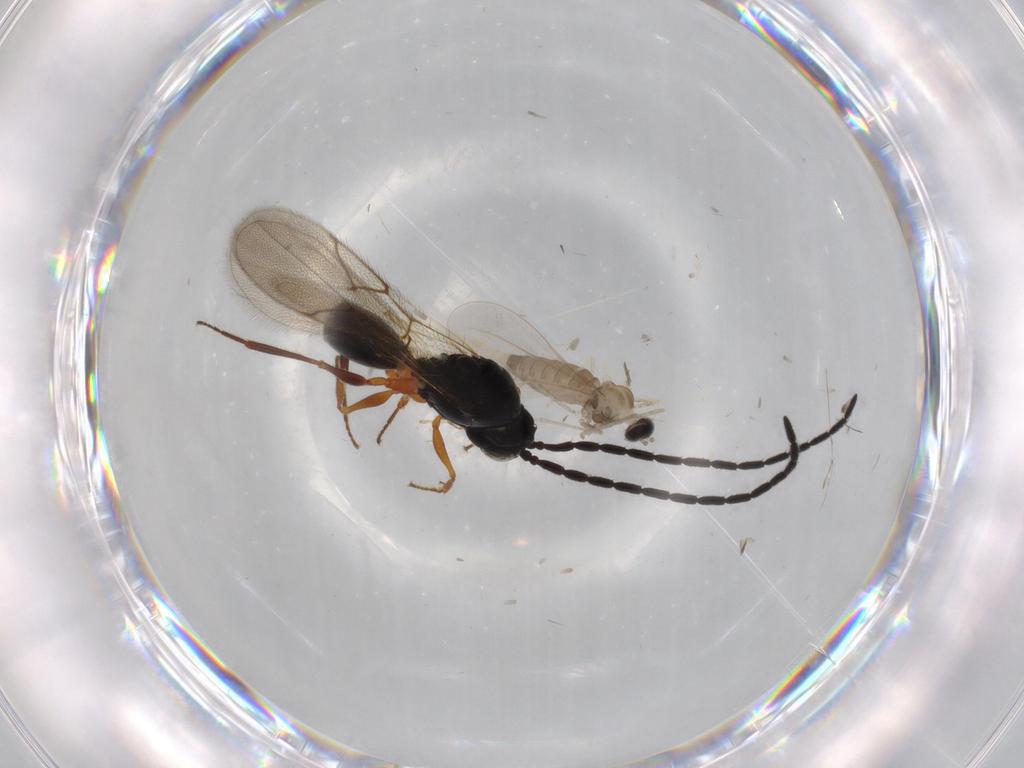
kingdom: Animalia
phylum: Arthropoda
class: Insecta
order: Diptera
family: Cecidomyiidae
